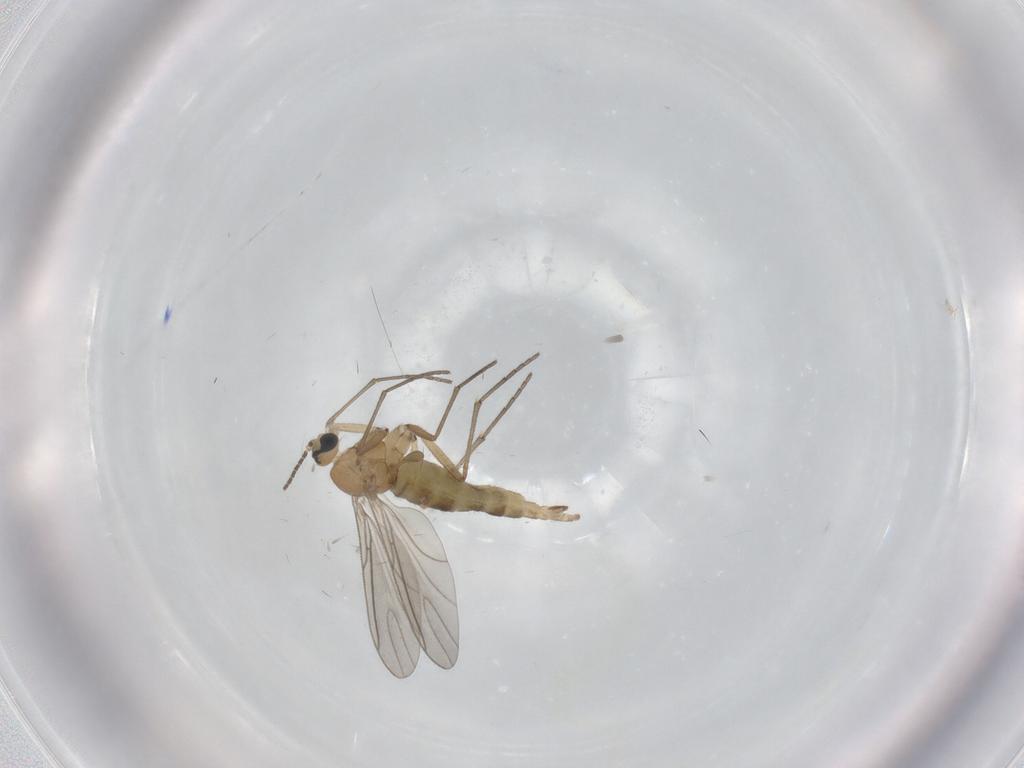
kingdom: Animalia
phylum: Arthropoda
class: Insecta
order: Diptera
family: Sciaridae
